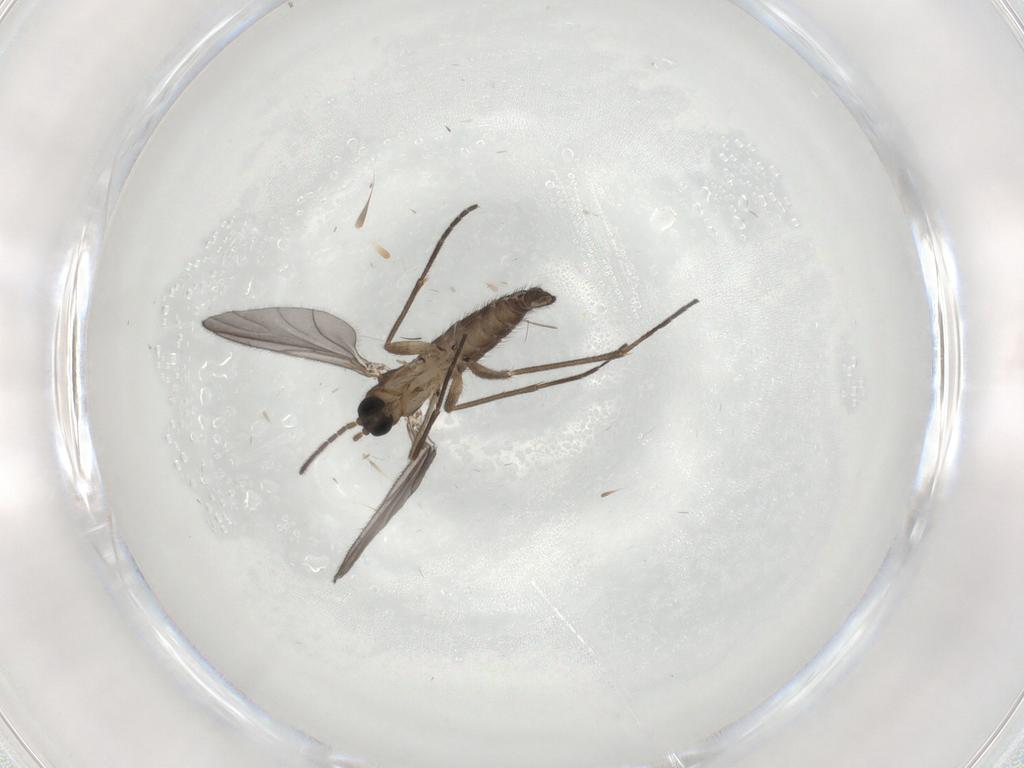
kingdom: Animalia
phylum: Arthropoda
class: Insecta
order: Diptera
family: Sciaridae
